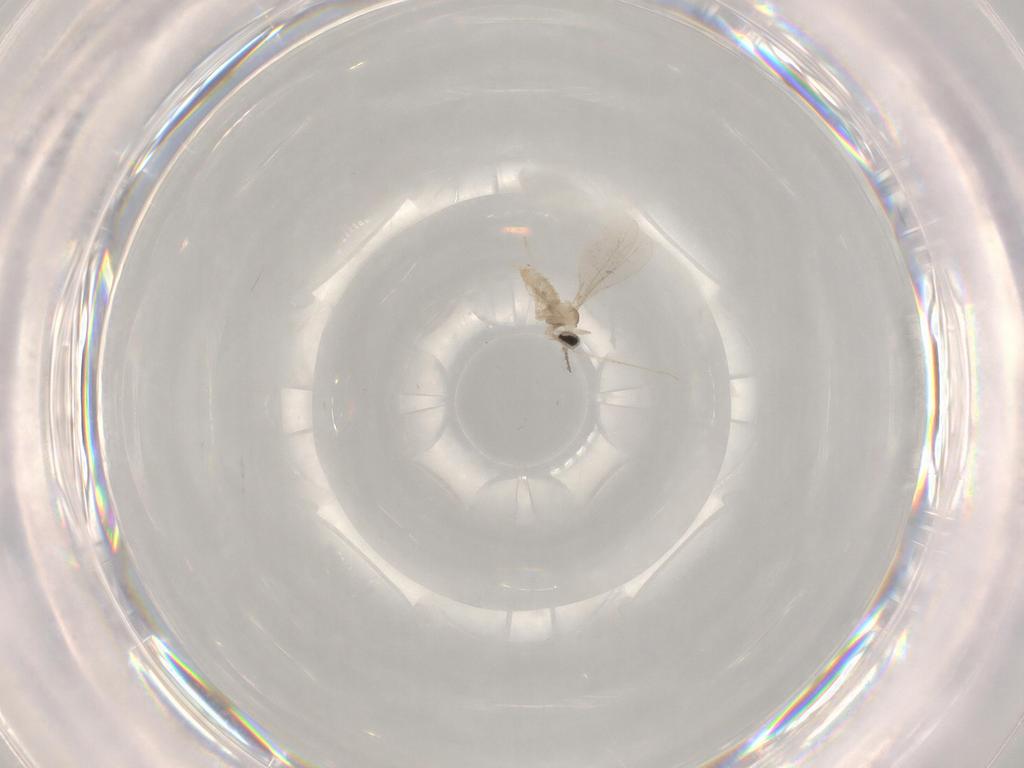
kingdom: Animalia
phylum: Arthropoda
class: Insecta
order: Diptera
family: Cecidomyiidae
